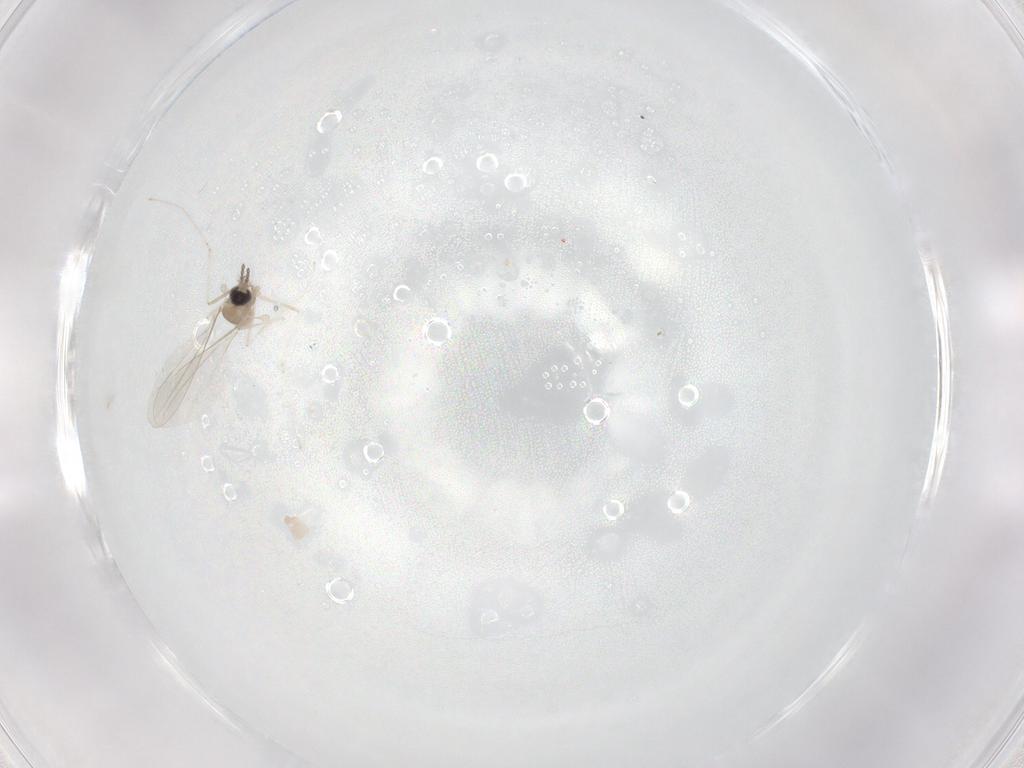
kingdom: Animalia
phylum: Arthropoda
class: Insecta
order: Diptera
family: Cecidomyiidae
